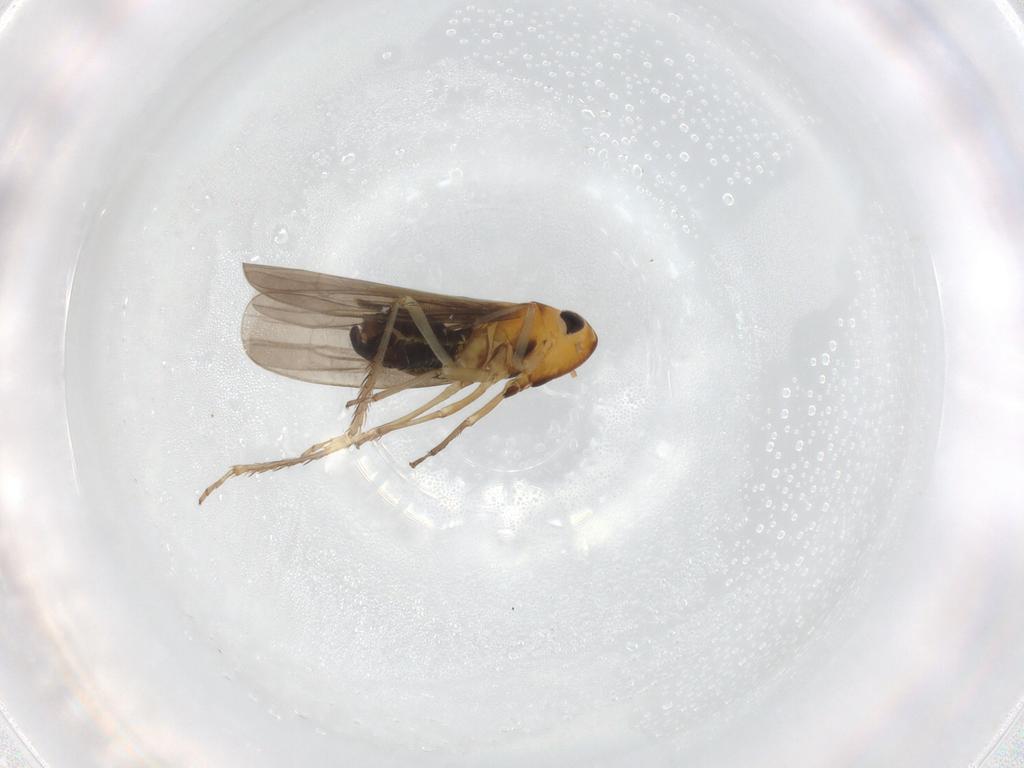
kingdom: Animalia
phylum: Arthropoda
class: Insecta
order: Hemiptera
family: Cicadellidae
